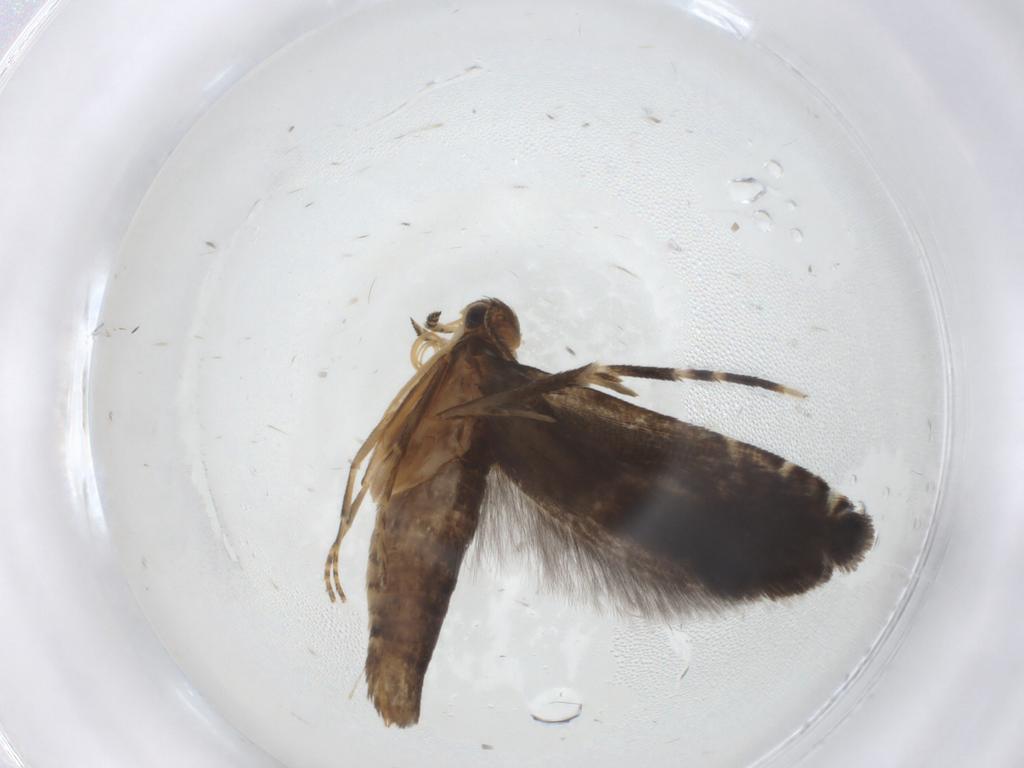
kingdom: Animalia
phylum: Arthropoda
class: Insecta
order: Lepidoptera
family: Glyphipterigidae
